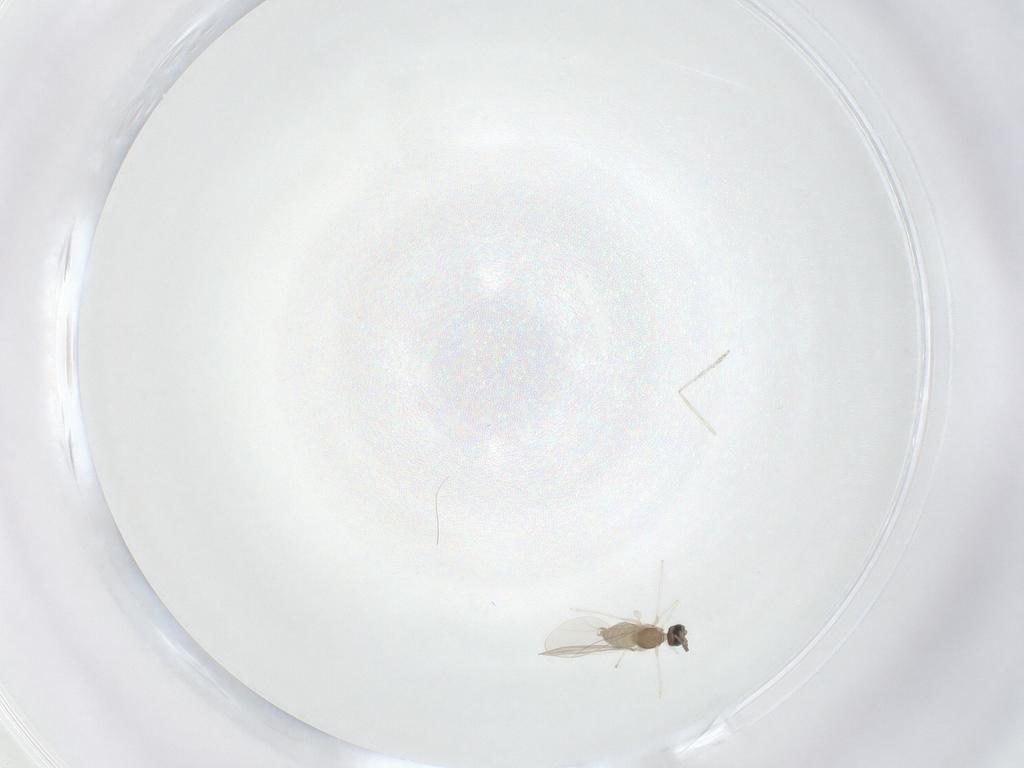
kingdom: Animalia
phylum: Arthropoda
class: Insecta
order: Diptera
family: Cecidomyiidae
